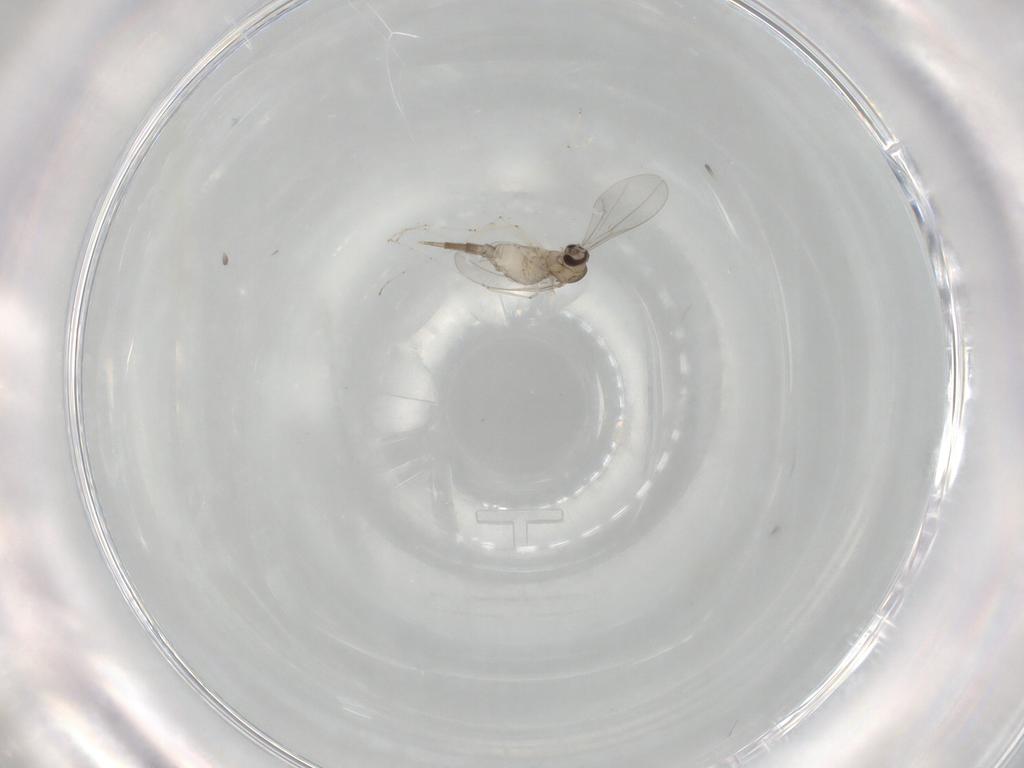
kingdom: Animalia
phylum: Arthropoda
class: Insecta
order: Diptera
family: Cecidomyiidae
